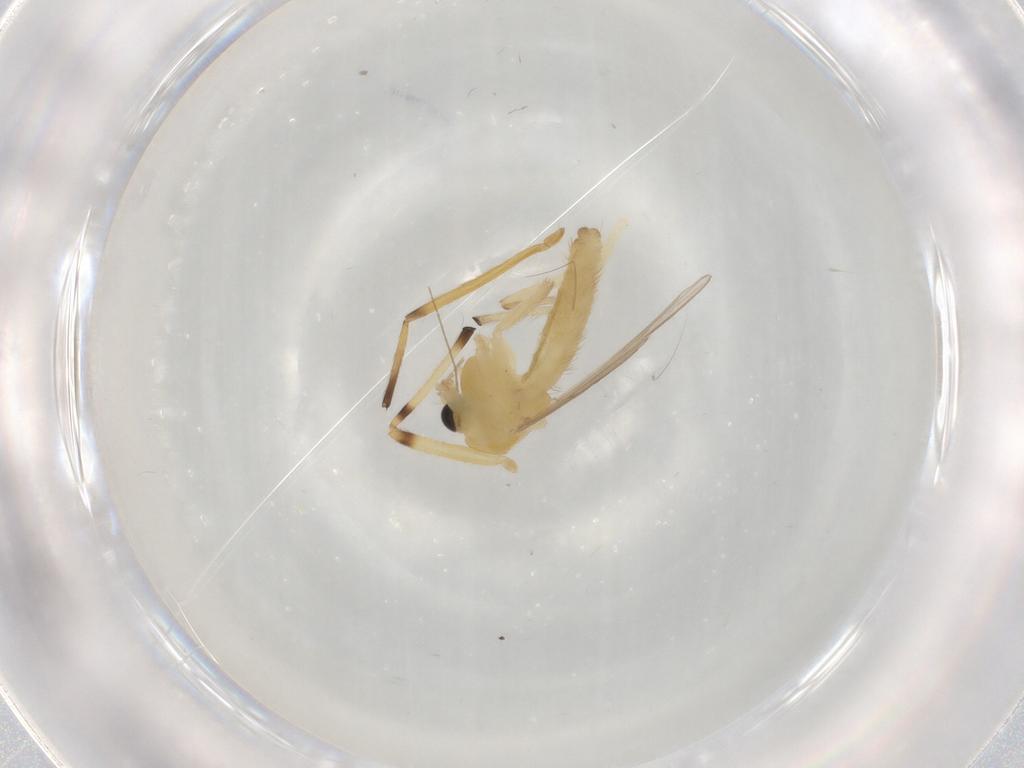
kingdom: Animalia
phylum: Arthropoda
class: Insecta
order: Diptera
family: Chironomidae
